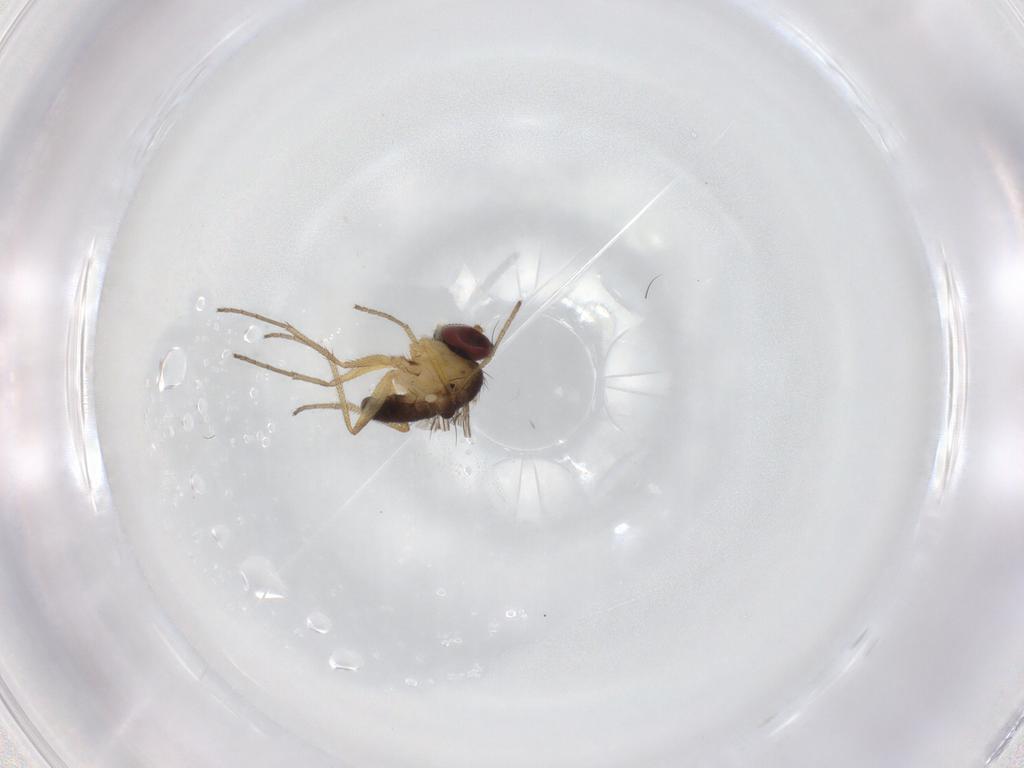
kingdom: Animalia
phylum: Arthropoda
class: Insecta
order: Diptera
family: Dolichopodidae
